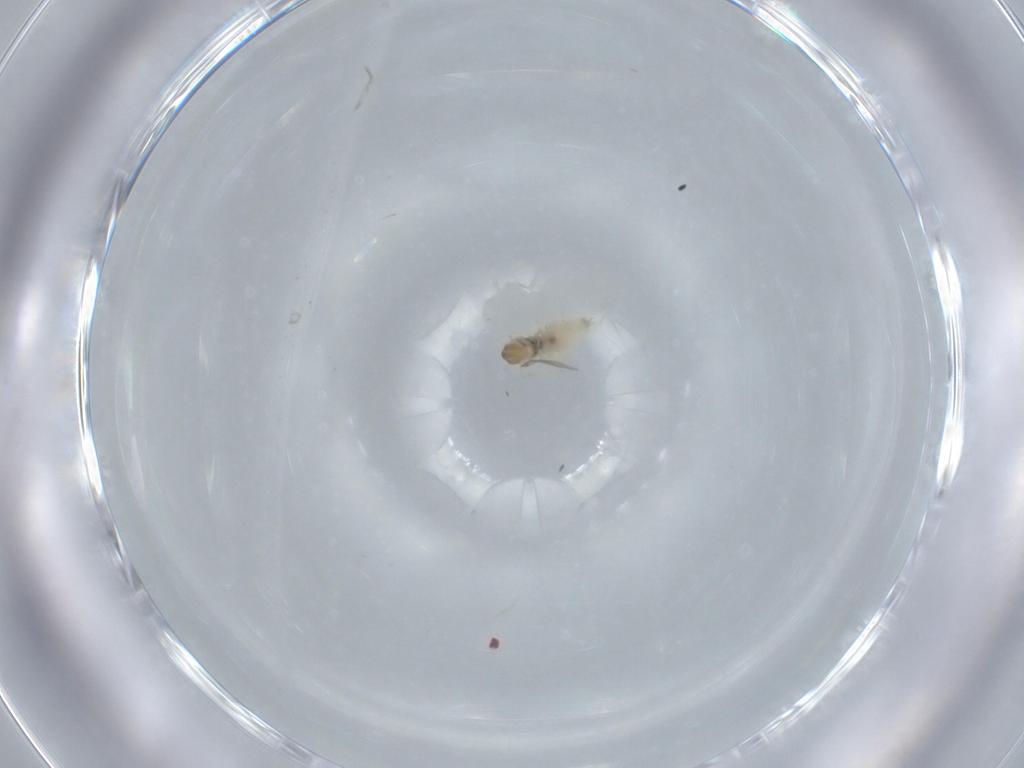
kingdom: Animalia
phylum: Arthropoda
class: Insecta
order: Diptera
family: Cecidomyiidae
